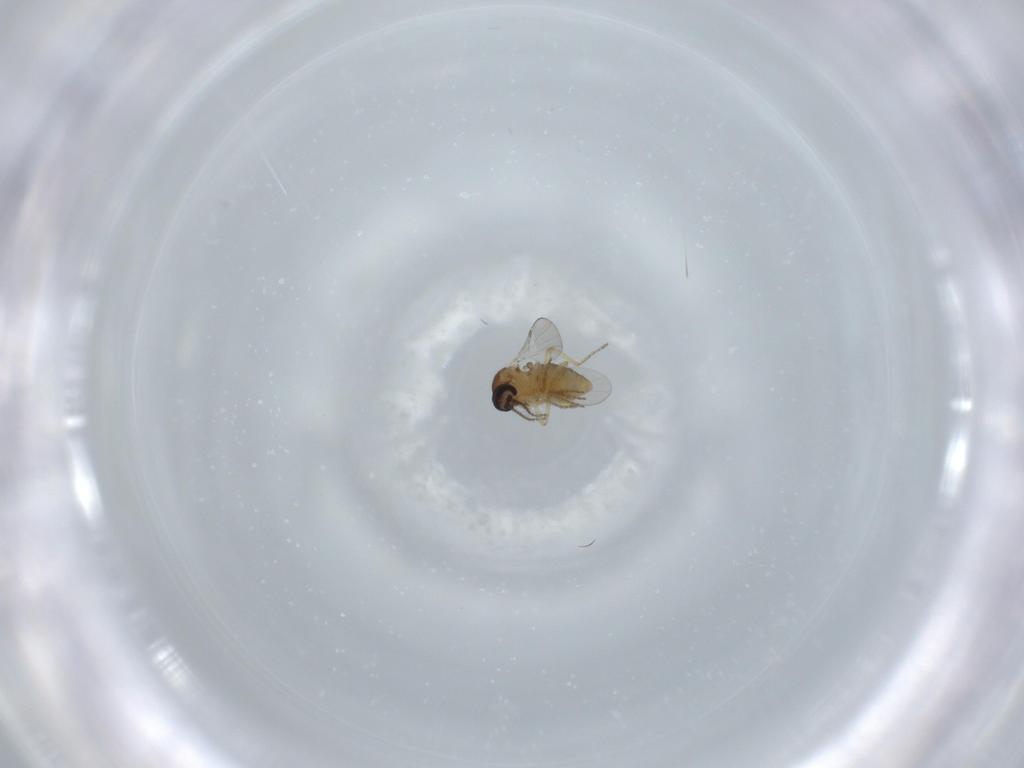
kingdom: Animalia
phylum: Arthropoda
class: Insecta
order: Diptera
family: Ceratopogonidae
